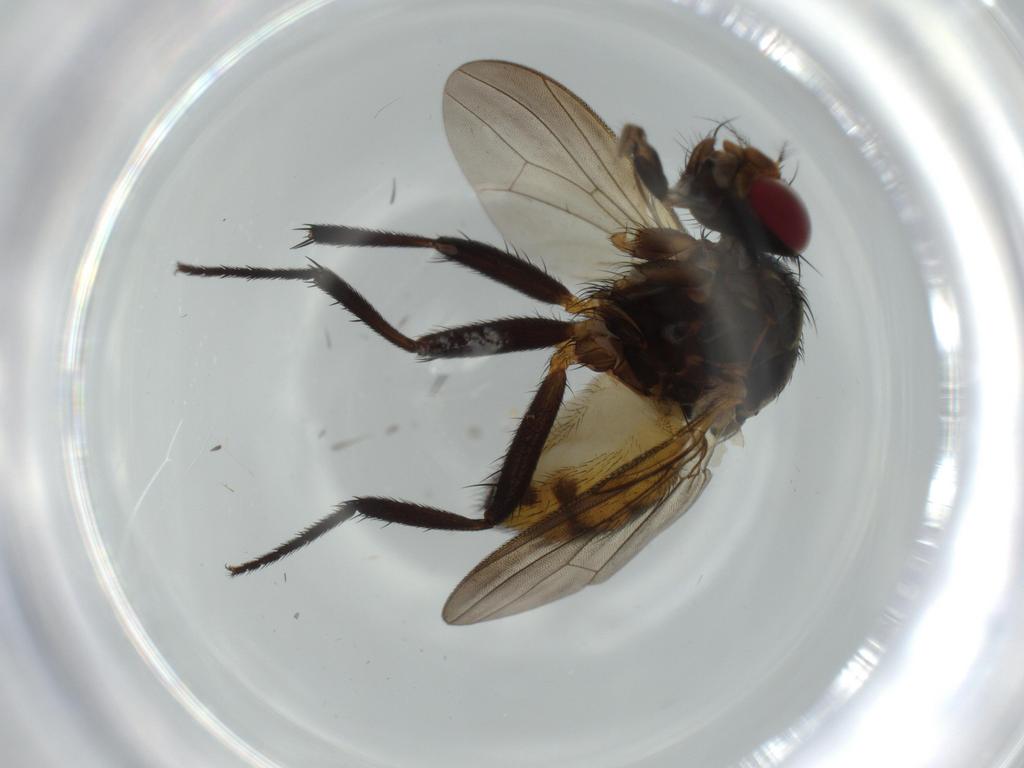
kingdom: Animalia
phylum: Arthropoda
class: Insecta
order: Diptera
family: Anthomyiidae
